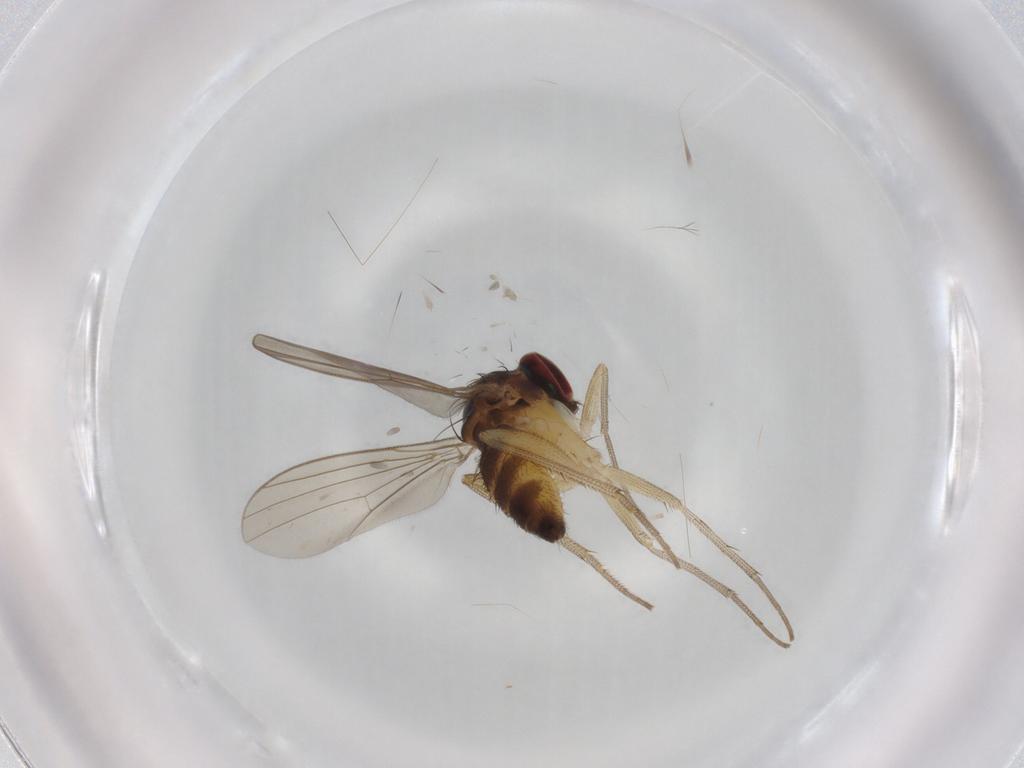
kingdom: Animalia
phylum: Arthropoda
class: Insecta
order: Diptera
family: Dolichopodidae
